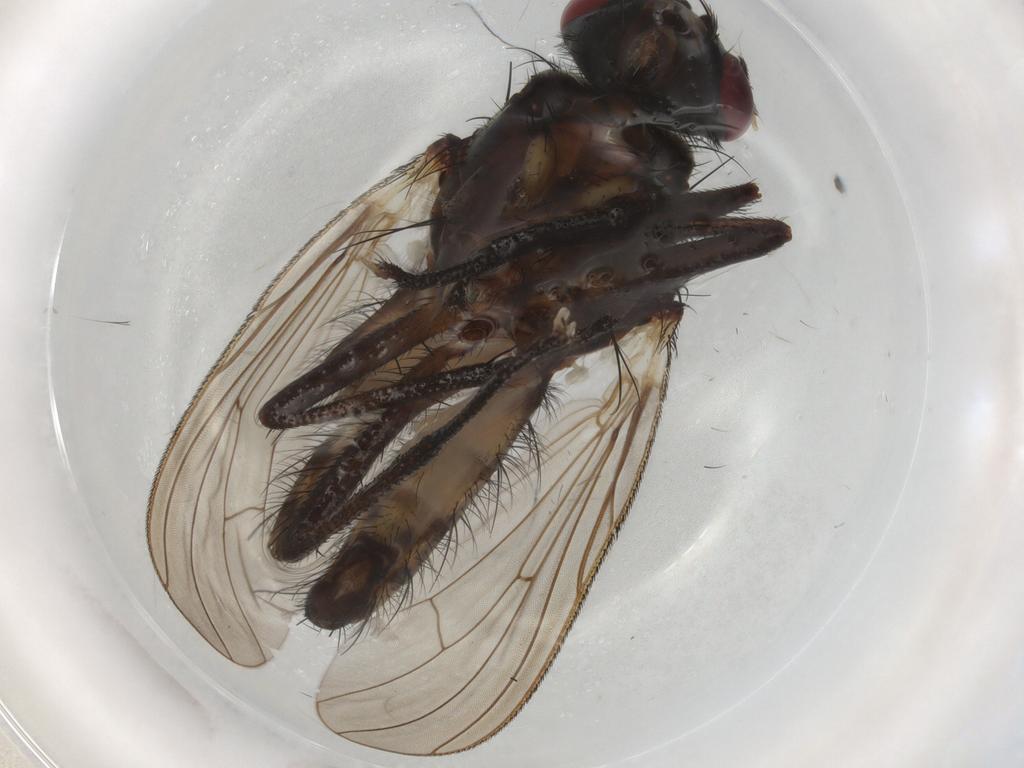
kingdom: Animalia
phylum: Arthropoda
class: Insecta
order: Diptera
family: Anthomyiidae
